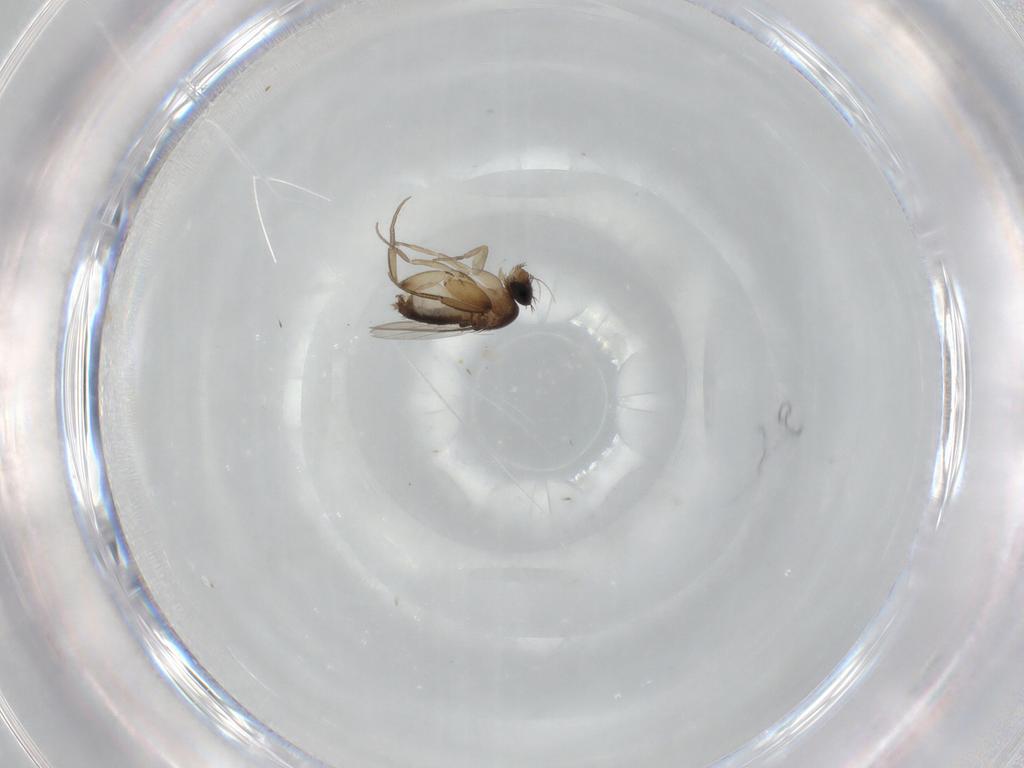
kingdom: Animalia
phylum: Arthropoda
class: Insecta
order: Diptera
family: Phoridae
